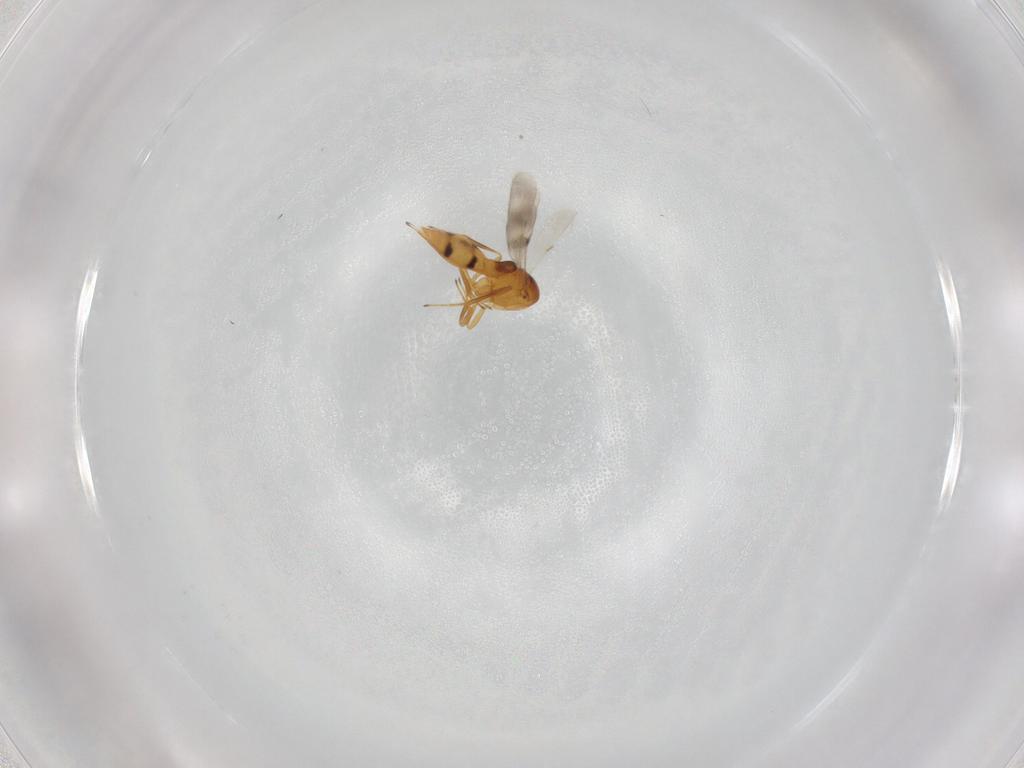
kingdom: Animalia
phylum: Arthropoda
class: Insecta
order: Hymenoptera
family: Scelionidae
